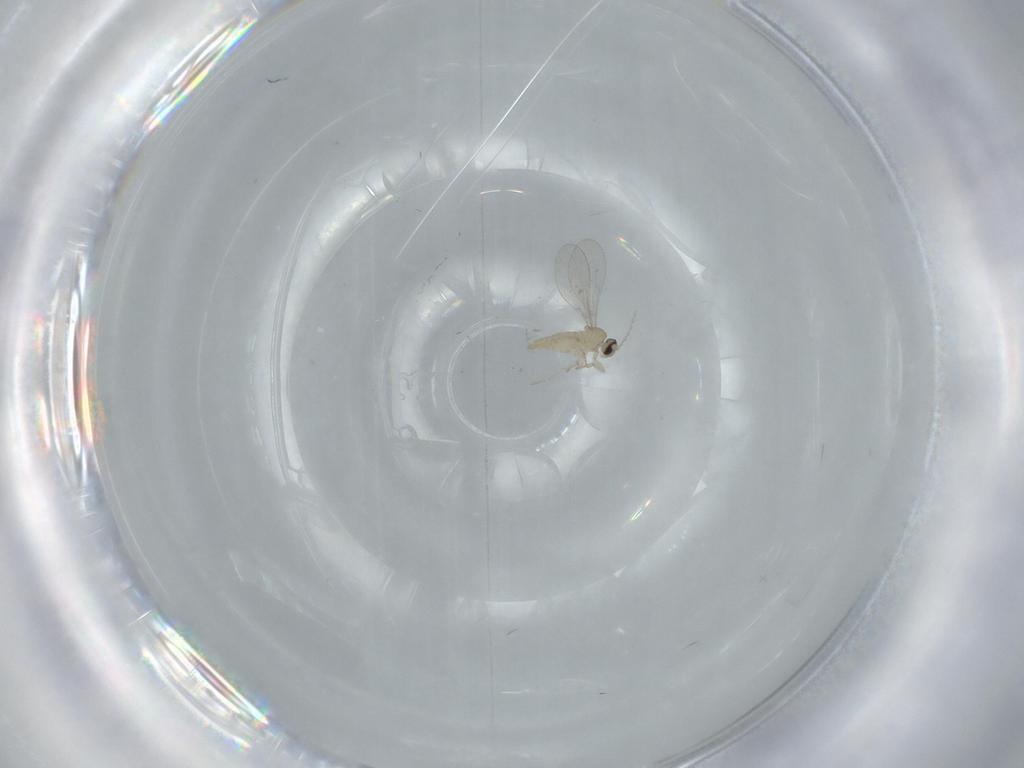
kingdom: Animalia
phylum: Arthropoda
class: Insecta
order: Diptera
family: Cecidomyiidae
